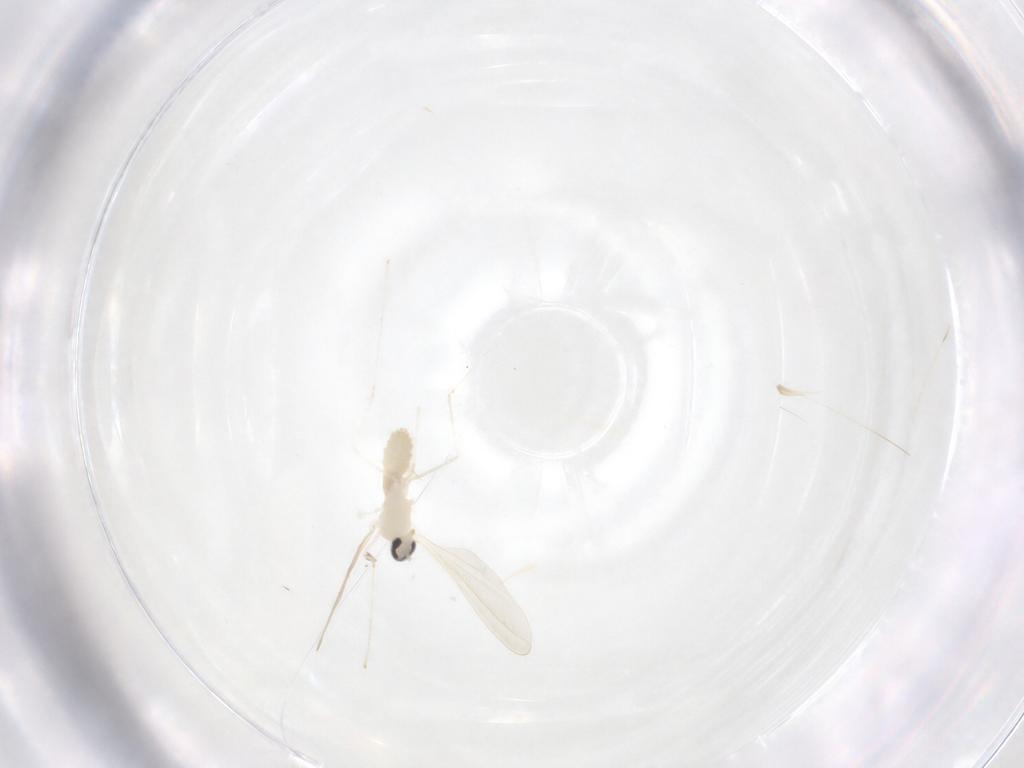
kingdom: Animalia
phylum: Arthropoda
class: Insecta
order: Diptera
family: Cecidomyiidae
